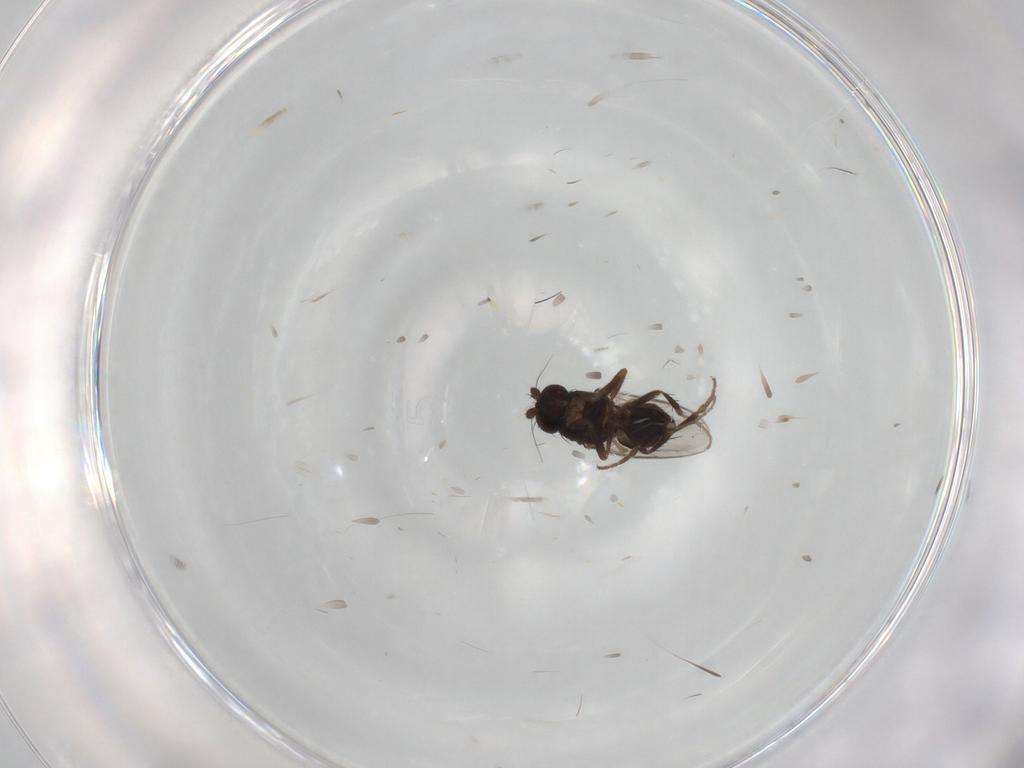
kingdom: Animalia
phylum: Arthropoda
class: Insecta
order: Diptera
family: Sphaeroceridae
